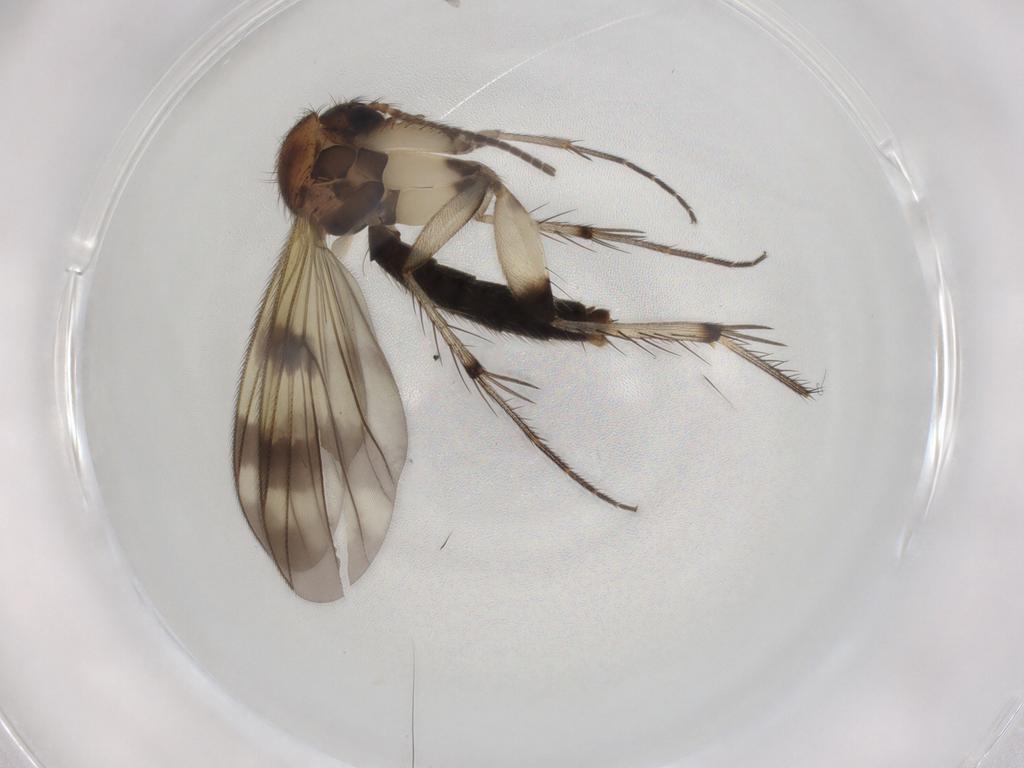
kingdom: Animalia
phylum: Arthropoda
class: Insecta
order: Diptera
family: Mycetophilidae
